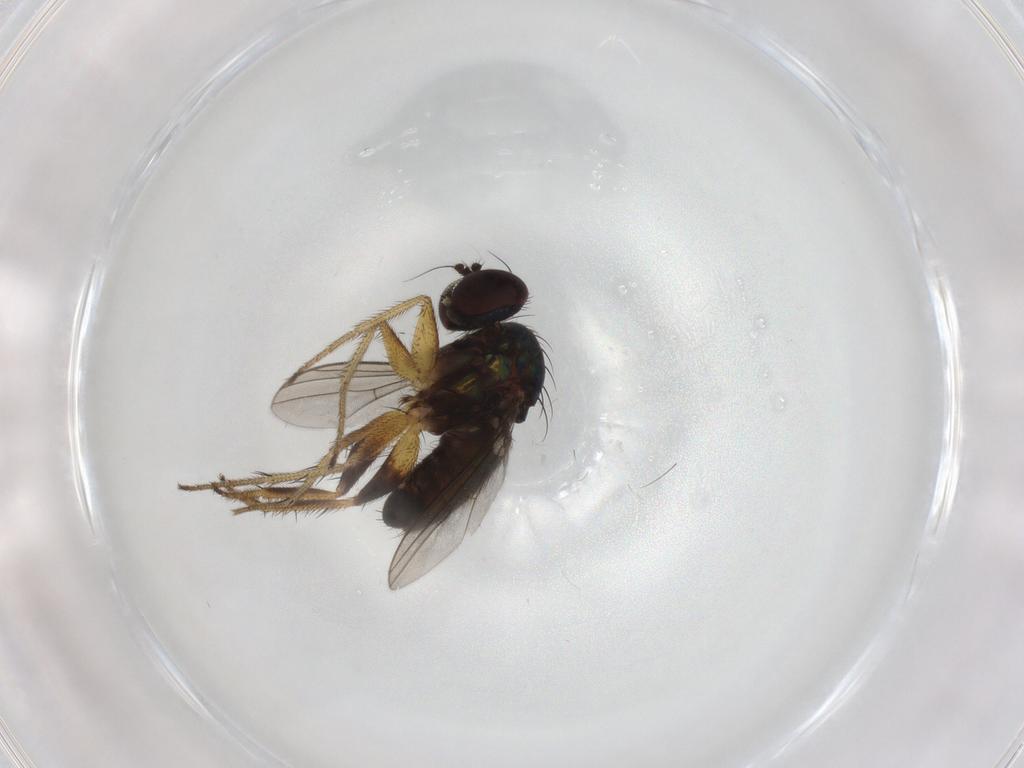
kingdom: Animalia
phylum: Arthropoda
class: Insecta
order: Diptera
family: Dolichopodidae
